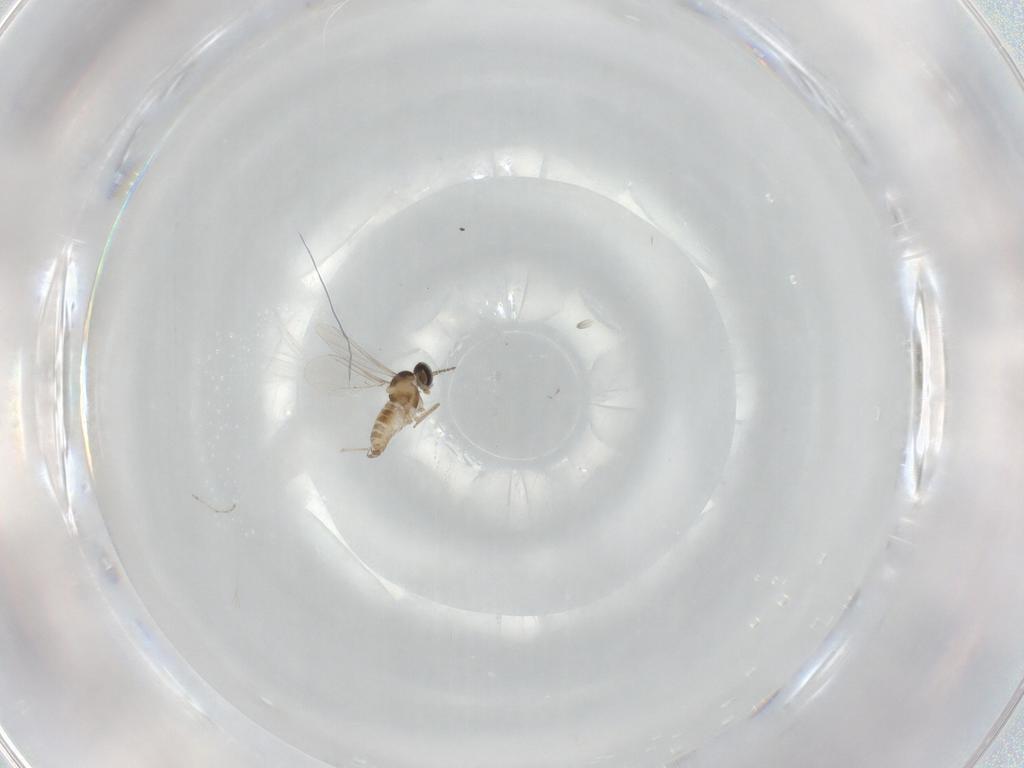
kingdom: Animalia
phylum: Arthropoda
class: Insecta
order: Diptera
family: Cecidomyiidae
